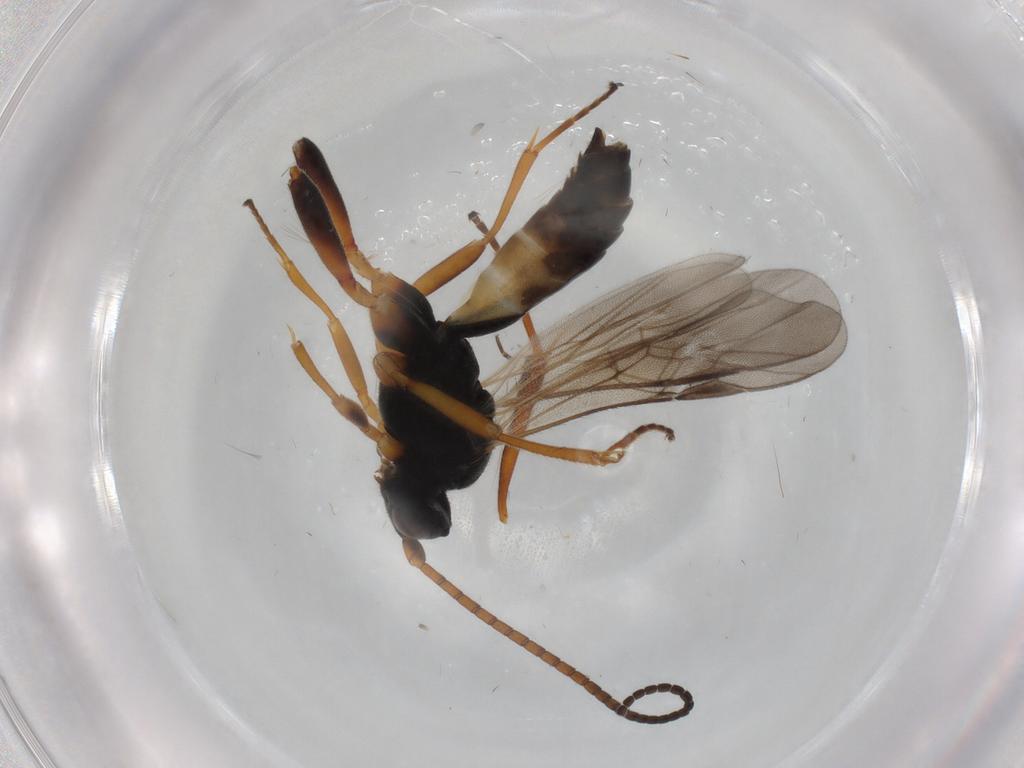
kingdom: Animalia
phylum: Arthropoda
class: Insecta
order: Hymenoptera
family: Braconidae
